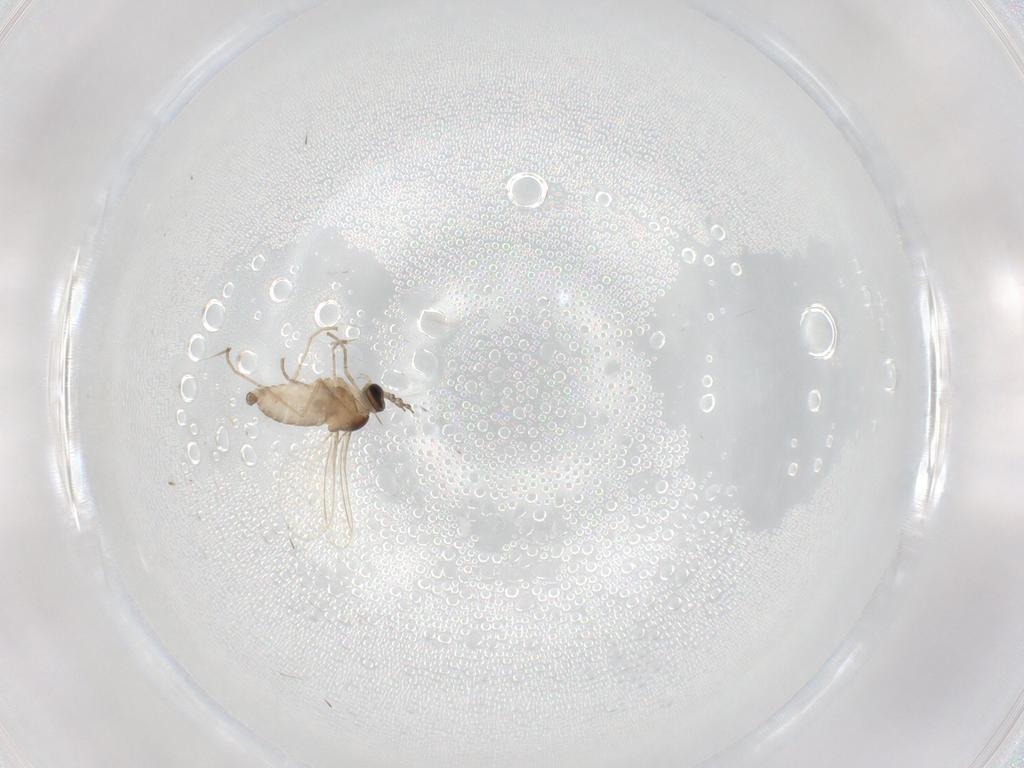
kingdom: Animalia
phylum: Arthropoda
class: Insecta
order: Diptera
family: Cecidomyiidae
